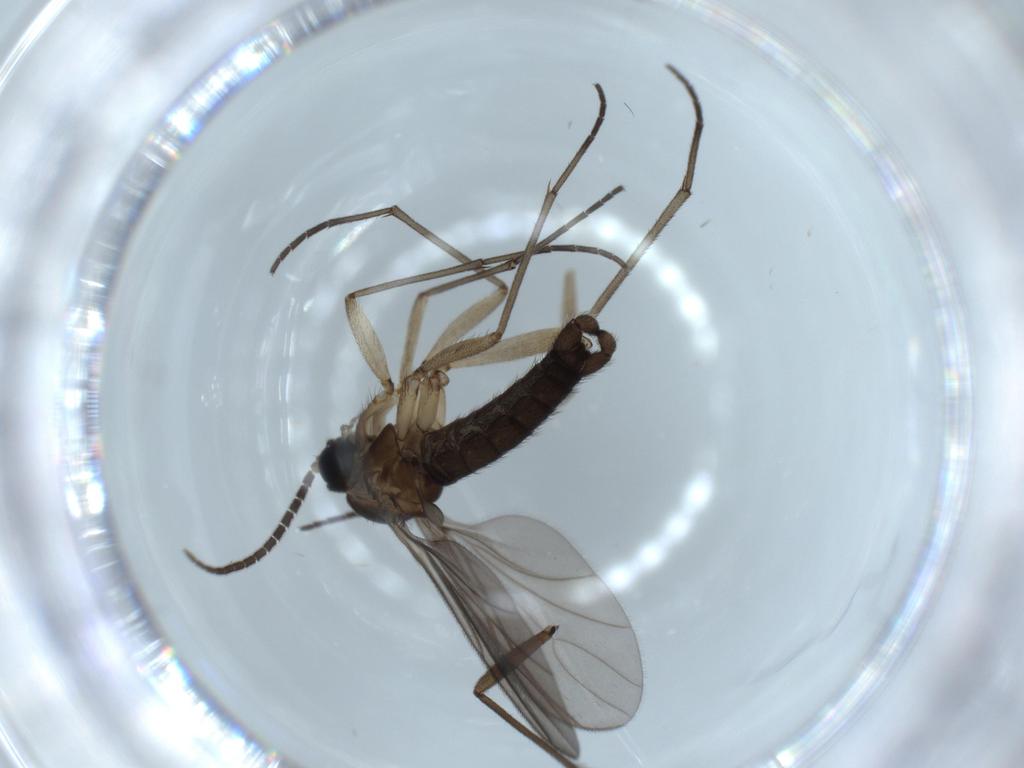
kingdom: Animalia
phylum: Arthropoda
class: Insecta
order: Diptera
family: Sciaridae
